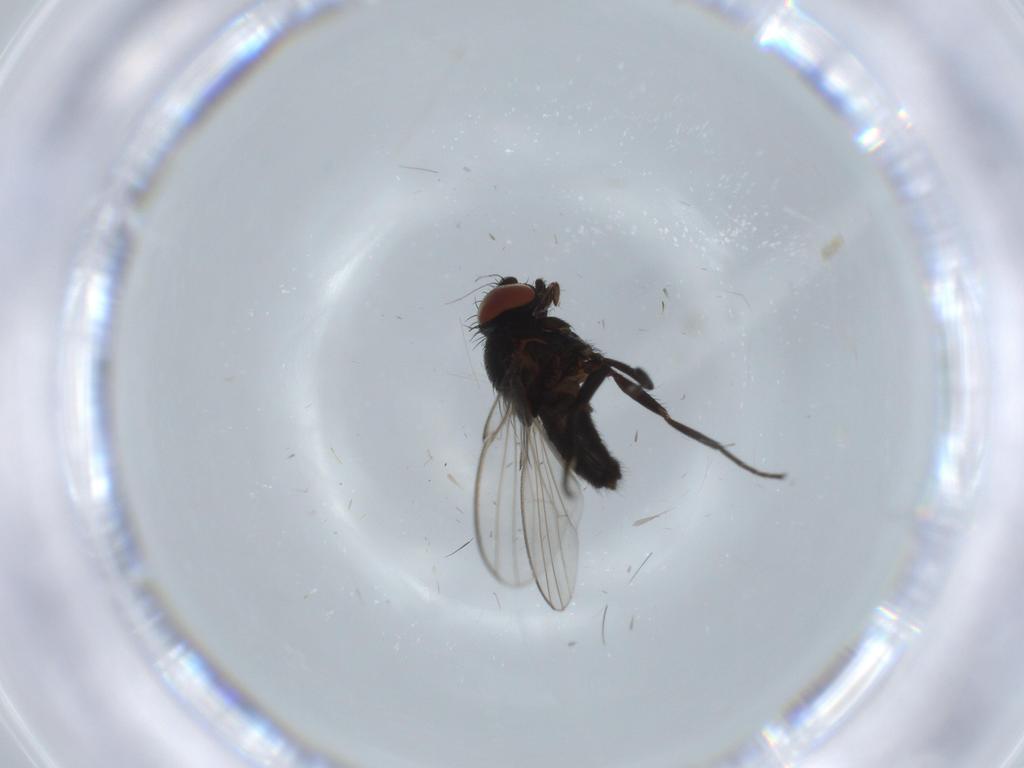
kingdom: Animalia
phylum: Arthropoda
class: Insecta
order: Diptera
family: Milichiidae
